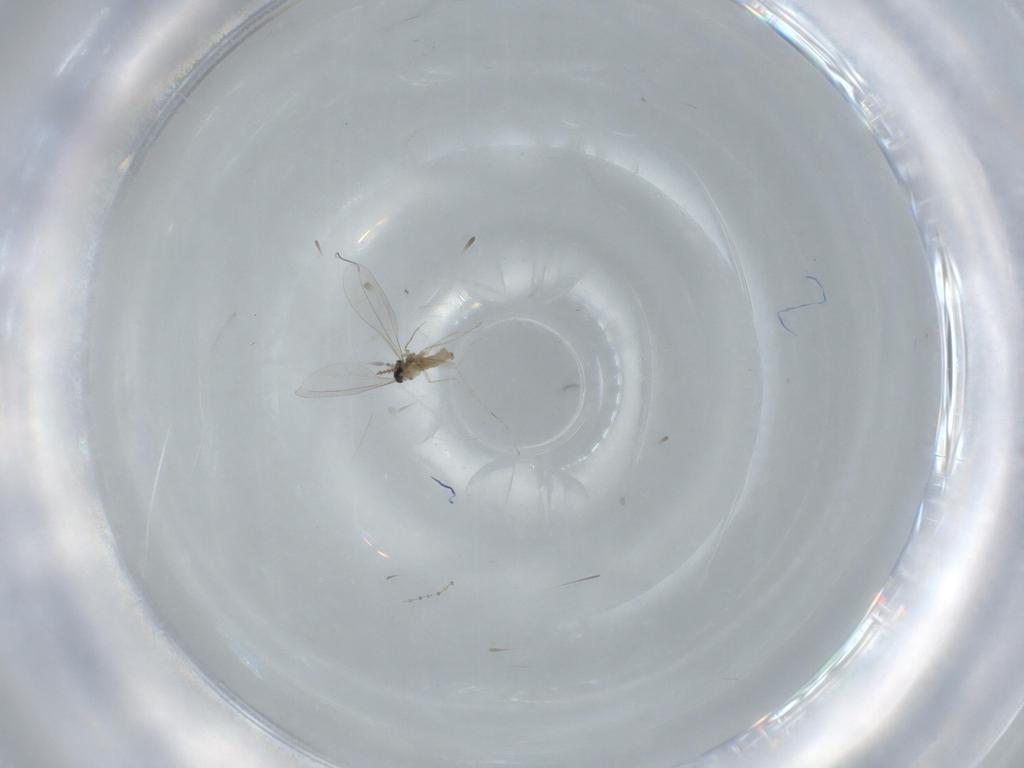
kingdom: Animalia
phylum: Arthropoda
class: Insecta
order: Diptera
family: Cecidomyiidae
